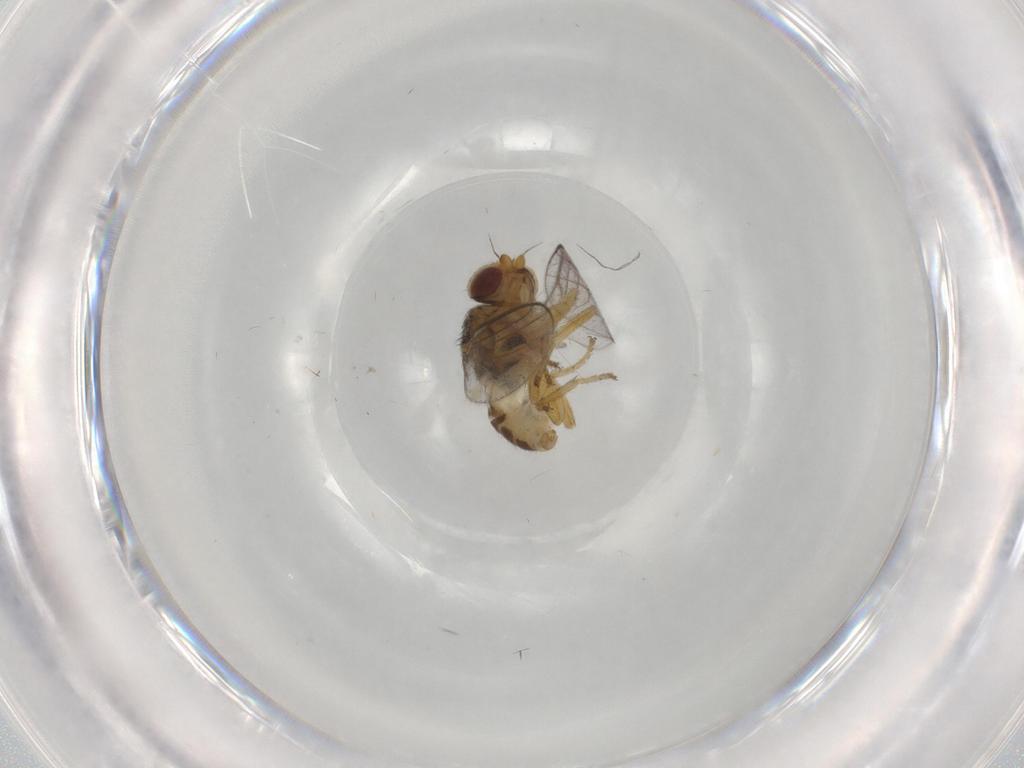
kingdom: Animalia
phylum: Arthropoda
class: Insecta
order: Diptera
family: Chloropidae
